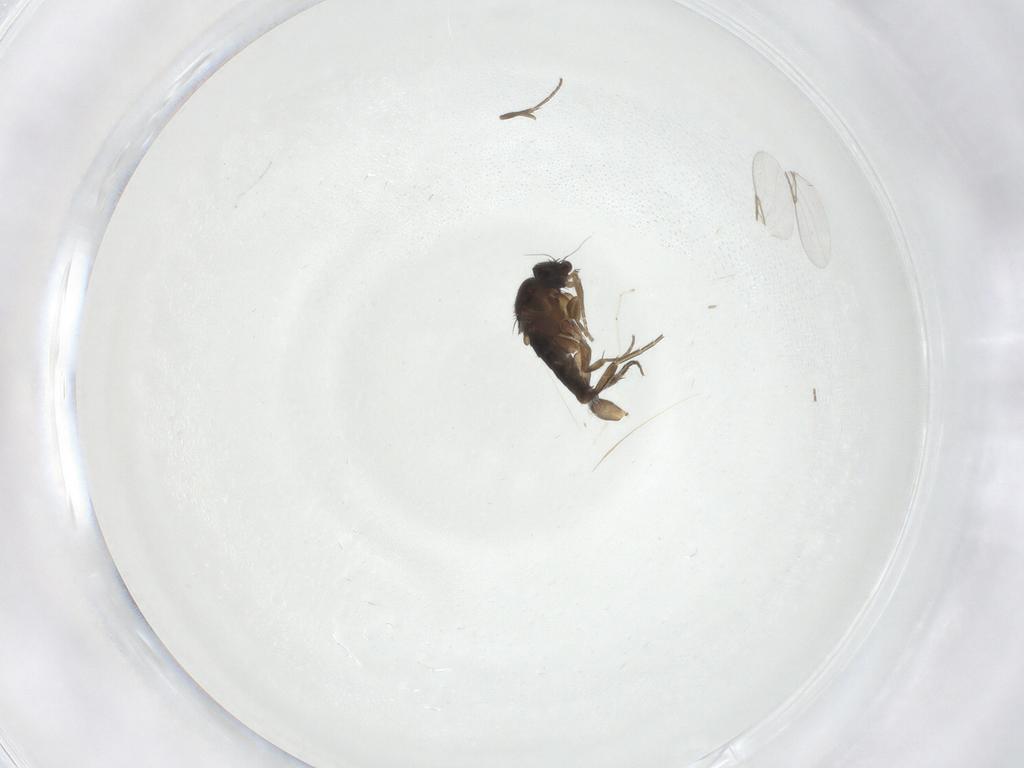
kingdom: Animalia
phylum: Arthropoda
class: Insecta
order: Diptera
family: Phoridae
